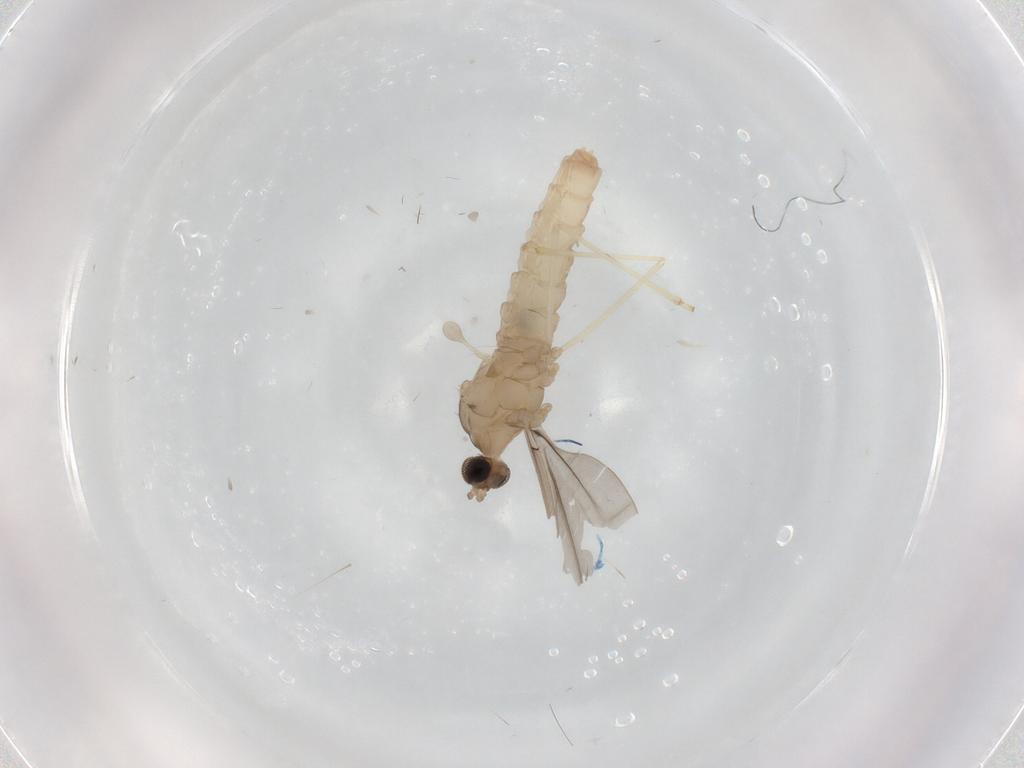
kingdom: Animalia
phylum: Arthropoda
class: Insecta
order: Diptera
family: Cecidomyiidae
